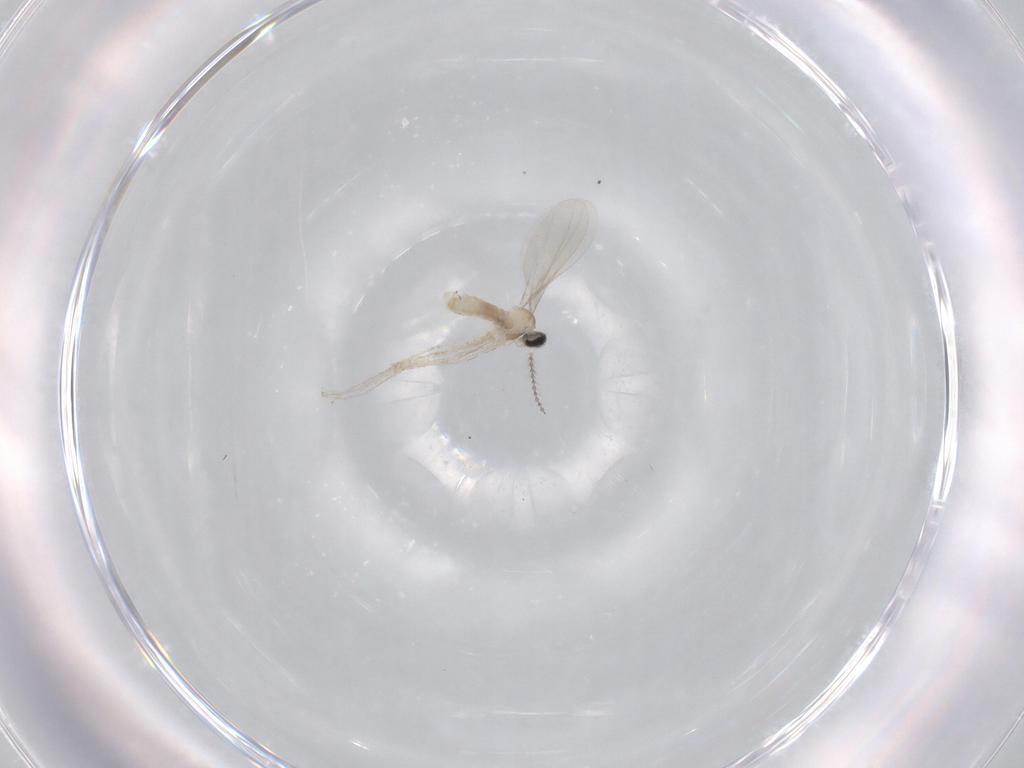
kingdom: Animalia
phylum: Arthropoda
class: Insecta
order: Diptera
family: Cecidomyiidae
